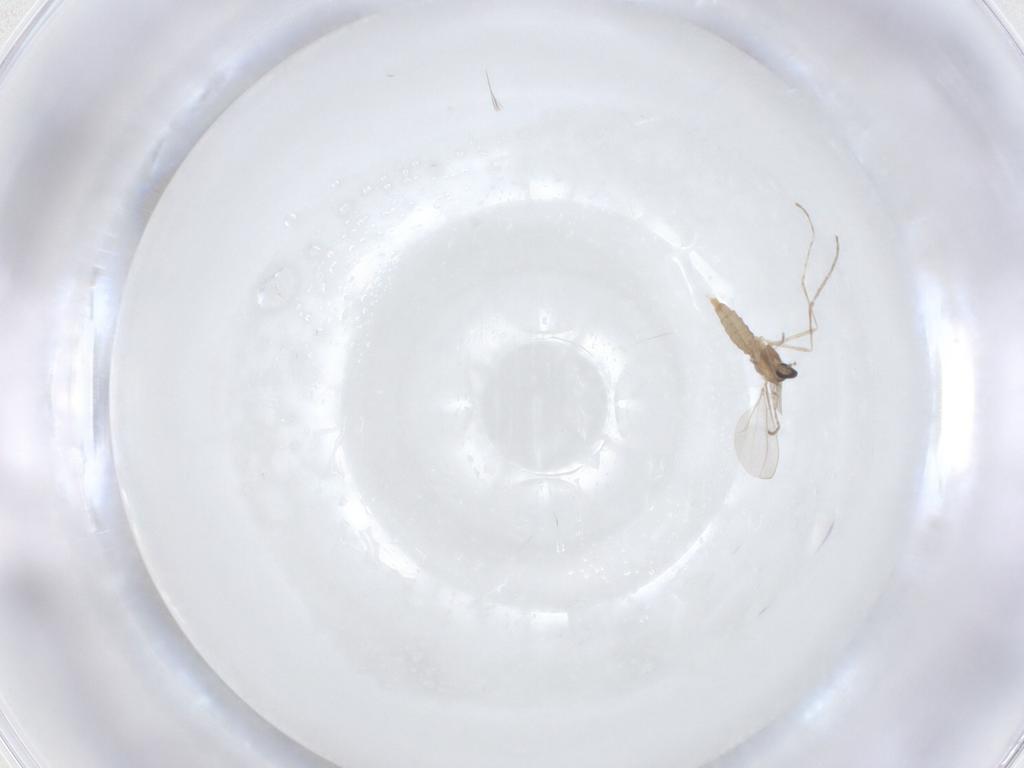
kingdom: Animalia
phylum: Arthropoda
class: Insecta
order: Diptera
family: Cecidomyiidae
